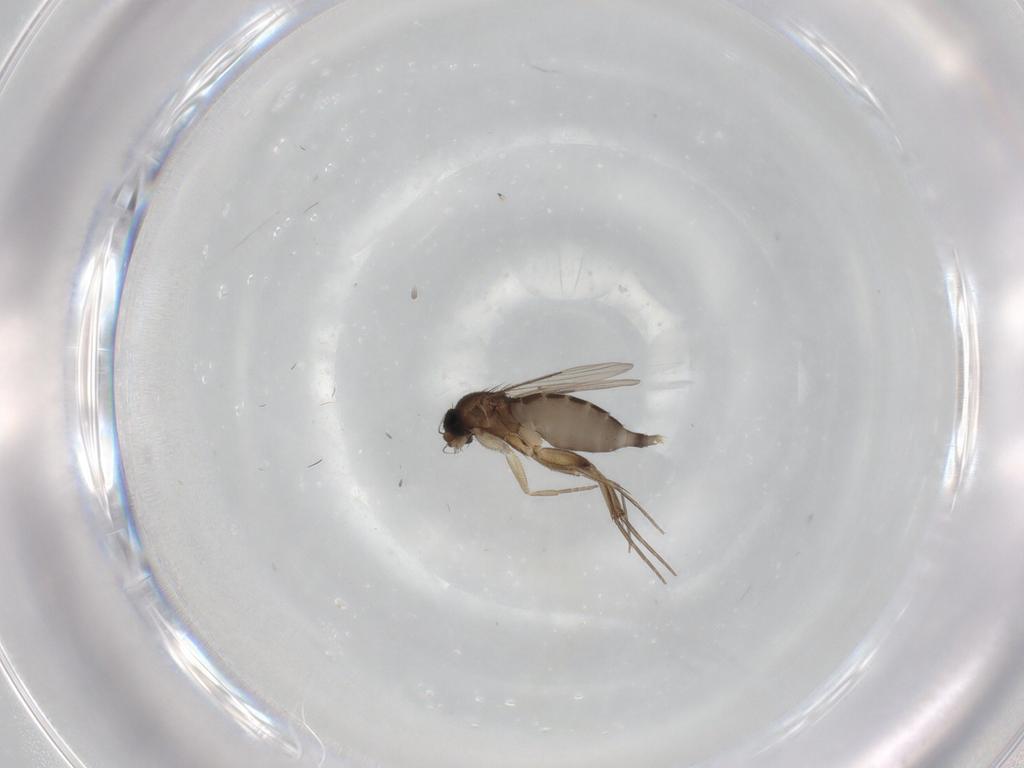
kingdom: Animalia
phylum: Arthropoda
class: Insecta
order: Diptera
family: Phoridae
